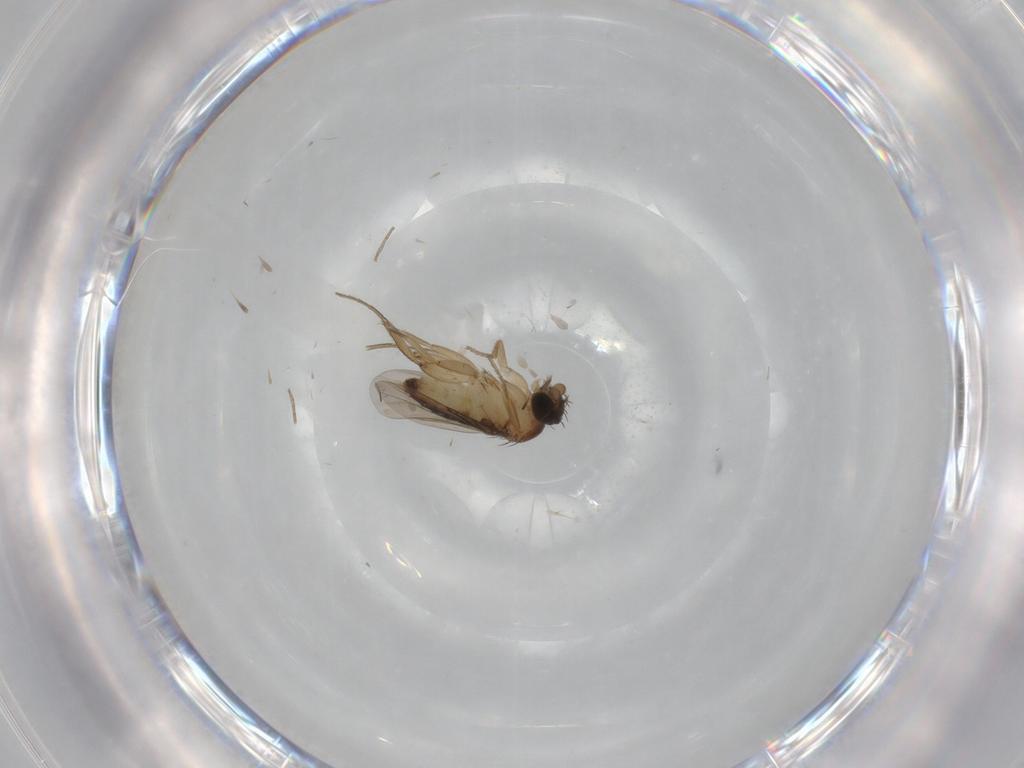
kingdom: Animalia
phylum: Arthropoda
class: Insecta
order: Diptera
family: Phoridae
